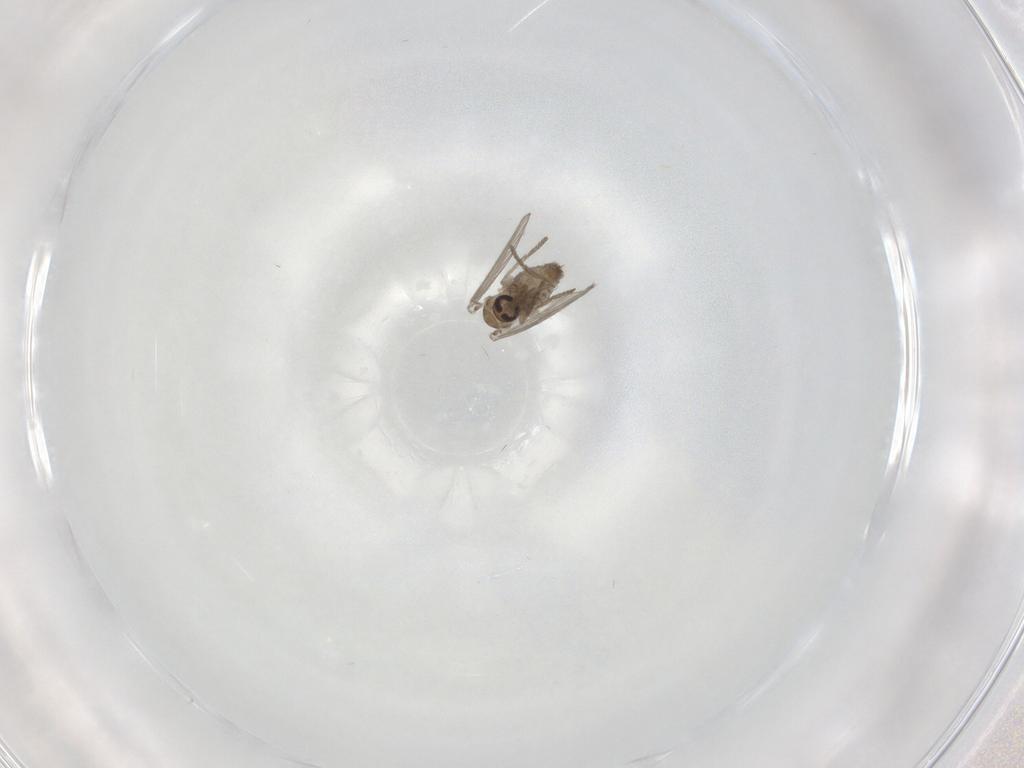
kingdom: Animalia
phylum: Arthropoda
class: Insecta
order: Diptera
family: Psychodidae
